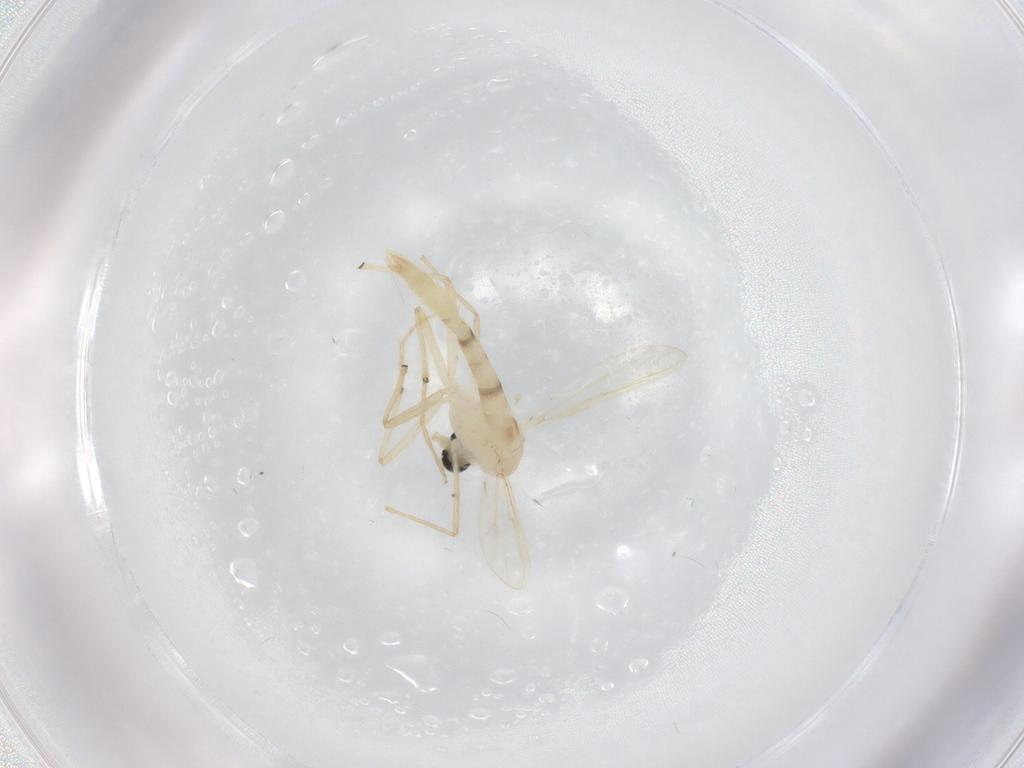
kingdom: Animalia
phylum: Arthropoda
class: Insecta
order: Diptera
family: Chironomidae
